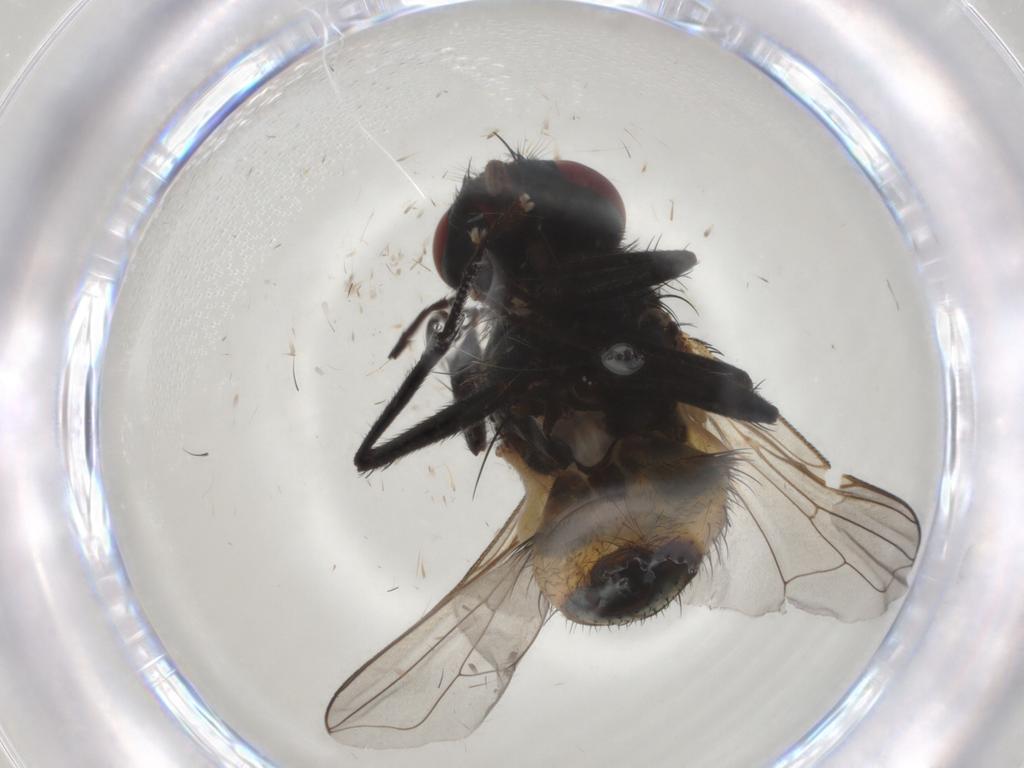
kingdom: Animalia
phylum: Arthropoda
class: Insecta
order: Diptera
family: Muscidae
